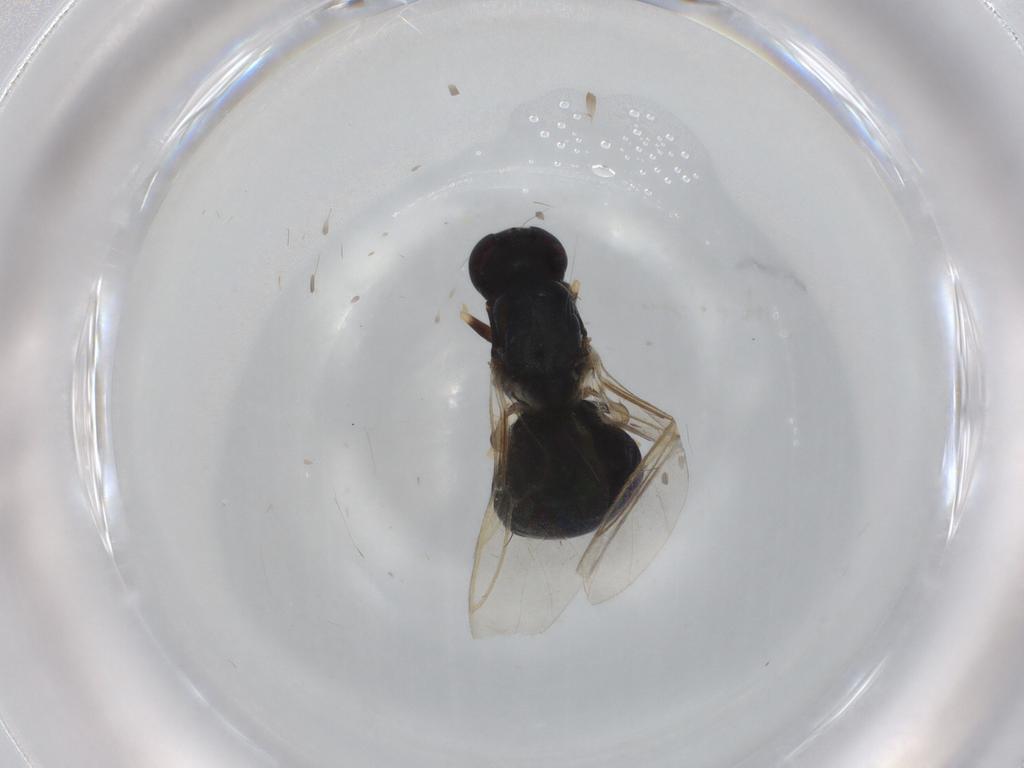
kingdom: Animalia
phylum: Arthropoda
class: Insecta
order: Diptera
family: Stratiomyidae
